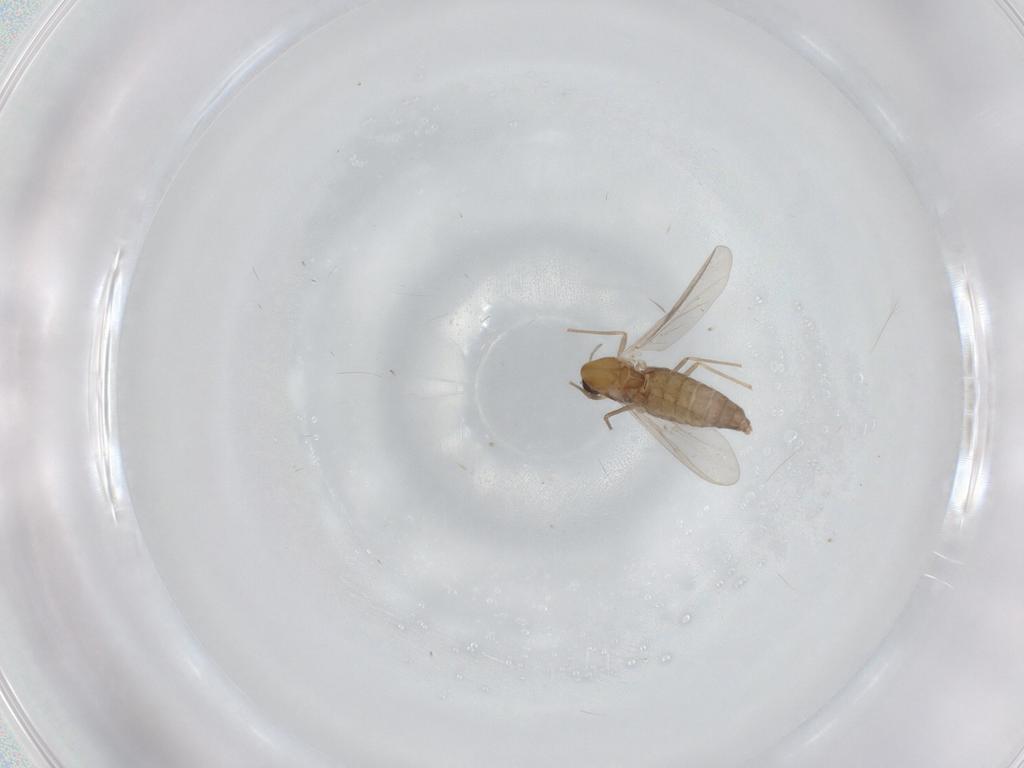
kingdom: Animalia
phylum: Arthropoda
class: Insecta
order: Diptera
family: Chironomidae
